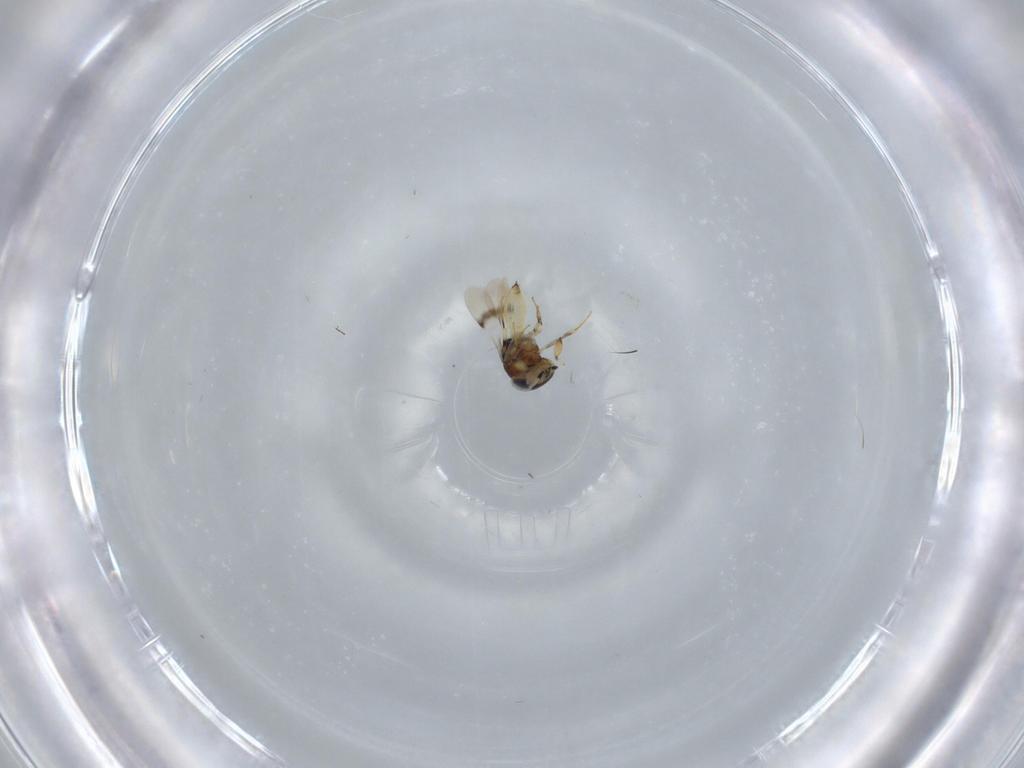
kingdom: Animalia
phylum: Arthropoda
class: Insecta
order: Hymenoptera
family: Scelionidae
